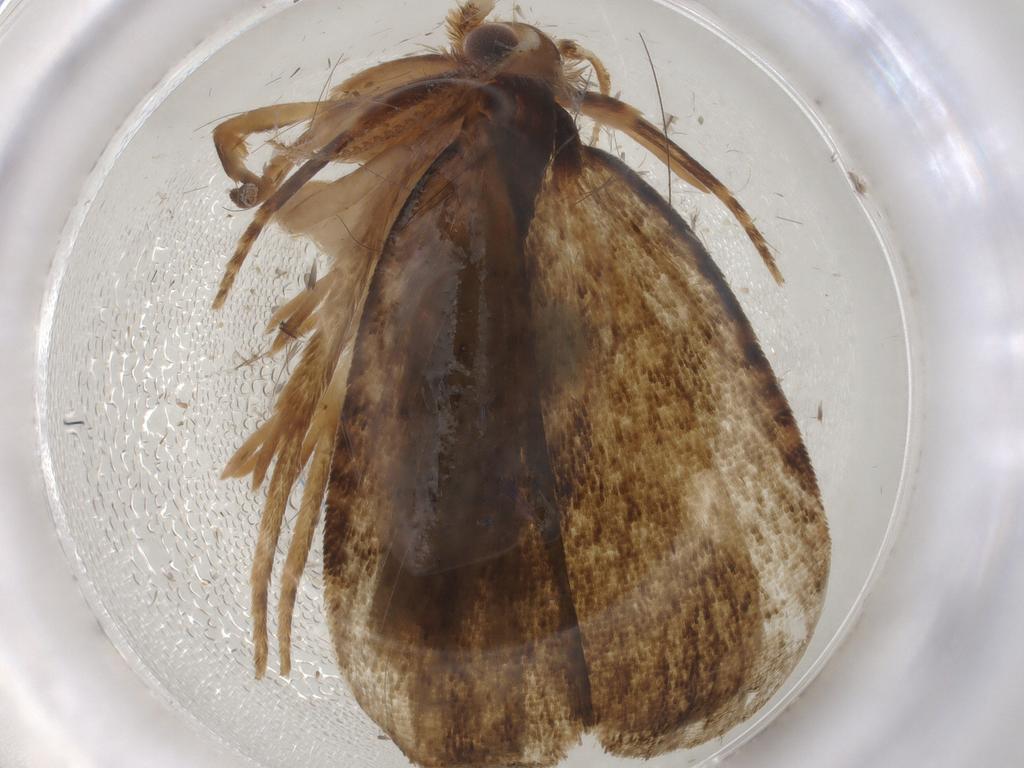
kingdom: Animalia
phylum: Arthropoda
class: Insecta
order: Lepidoptera
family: Geometridae
